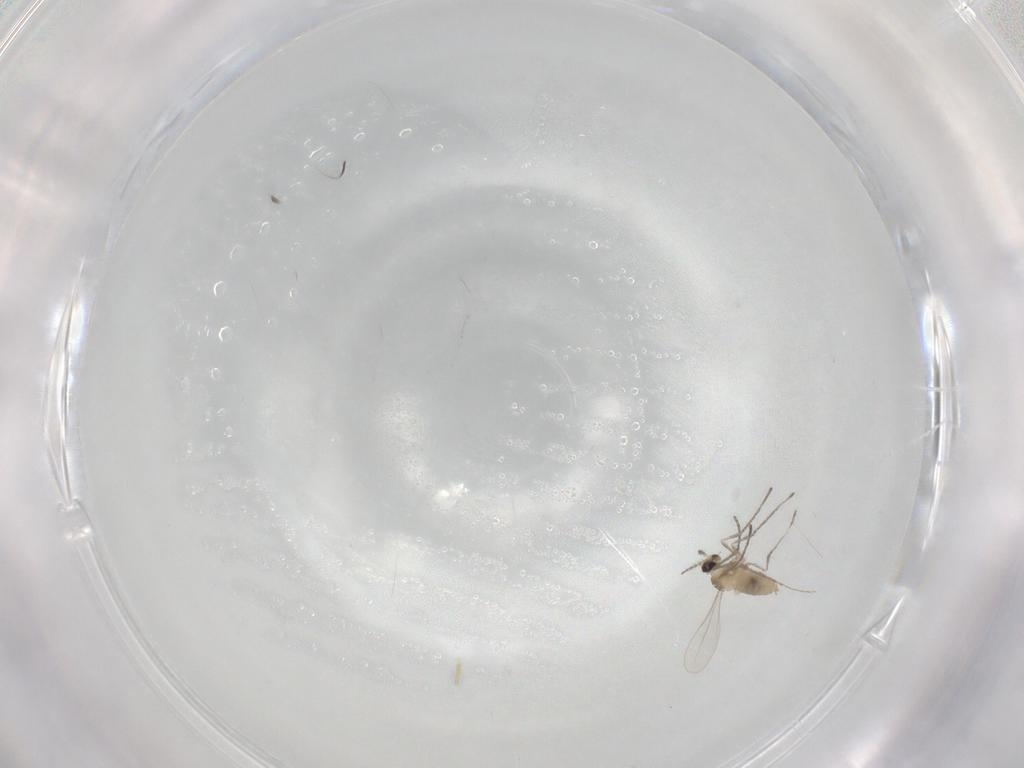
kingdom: Animalia
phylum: Arthropoda
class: Insecta
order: Diptera
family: Cecidomyiidae
